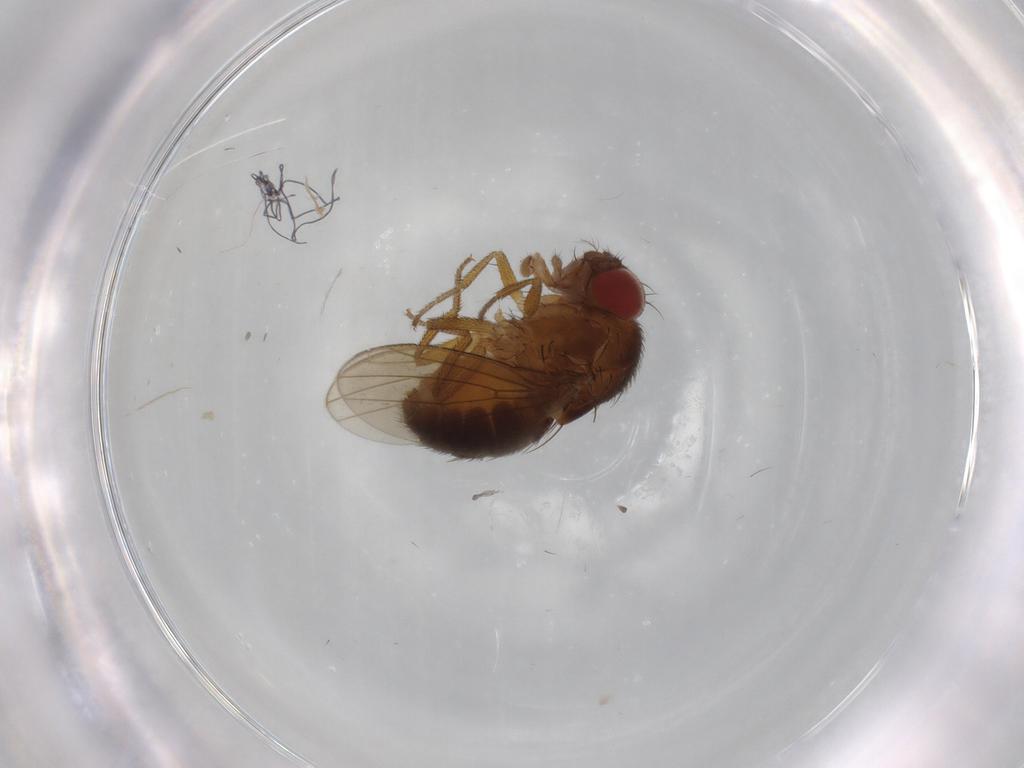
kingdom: Animalia
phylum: Arthropoda
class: Insecta
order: Diptera
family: Drosophilidae
